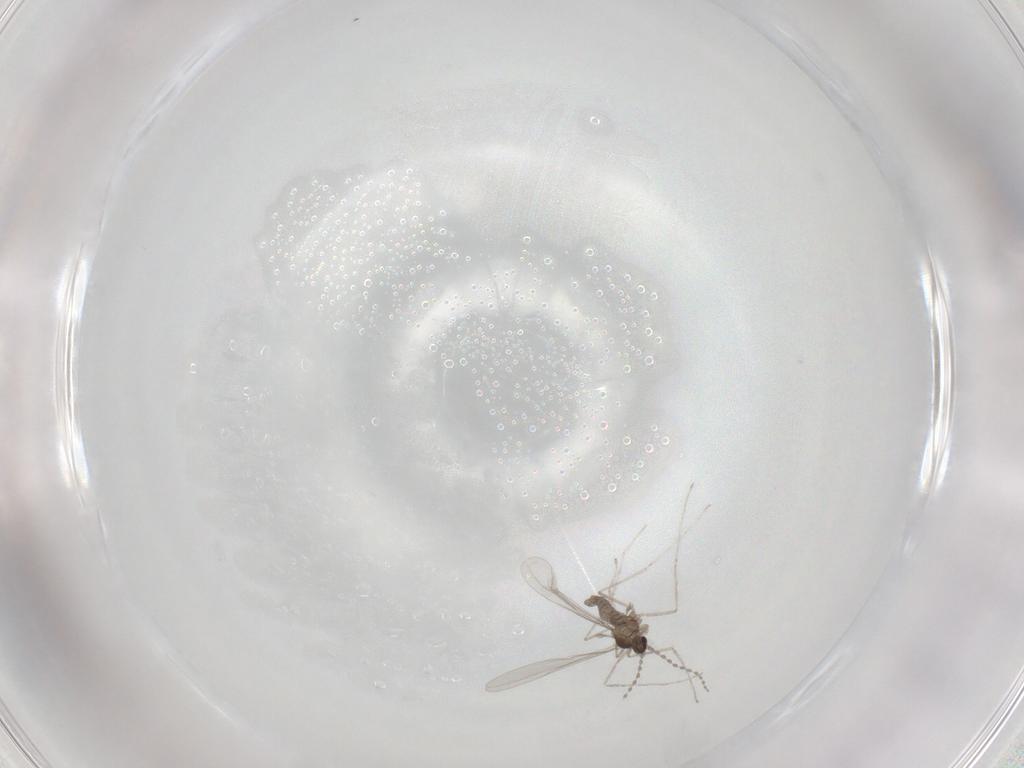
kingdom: Animalia
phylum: Arthropoda
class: Insecta
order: Diptera
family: Cecidomyiidae
